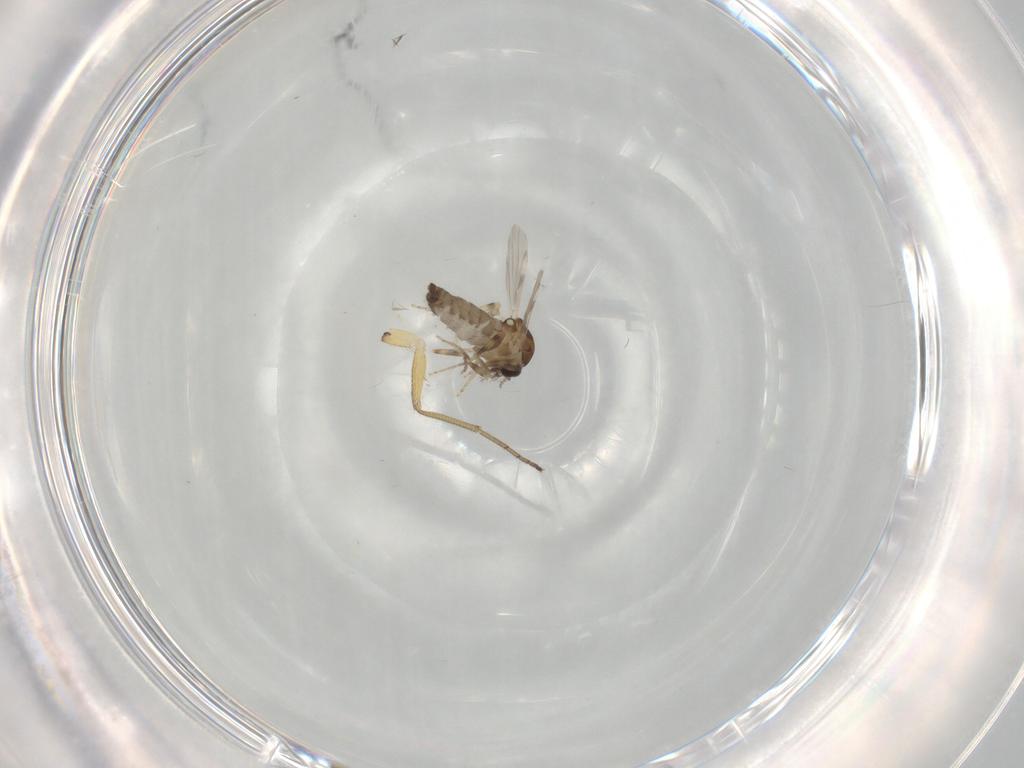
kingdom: Animalia
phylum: Arthropoda
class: Insecta
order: Diptera
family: Ceratopogonidae
